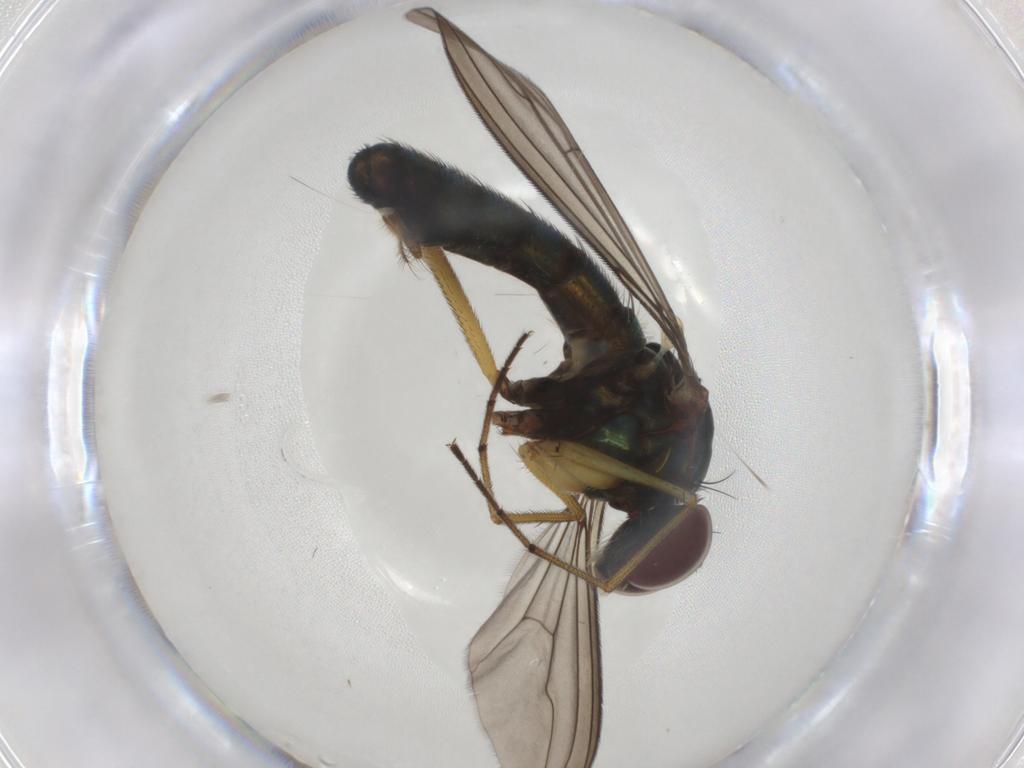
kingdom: Animalia
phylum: Arthropoda
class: Insecta
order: Diptera
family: Dolichopodidae
